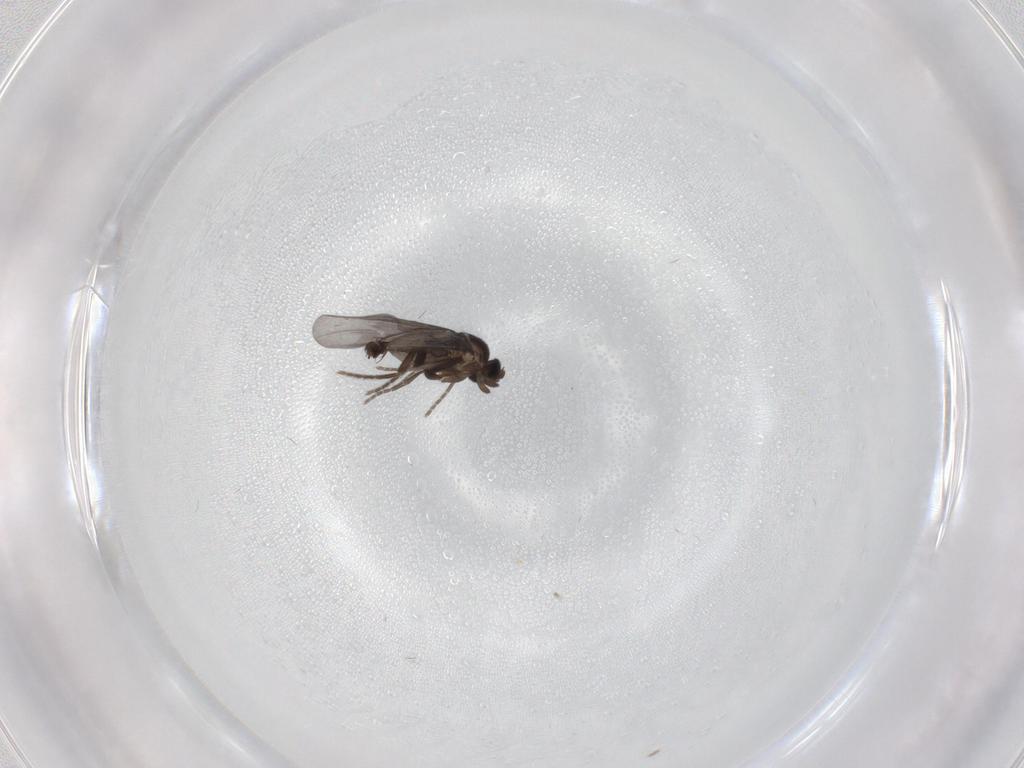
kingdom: Animalia
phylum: Arthropoda
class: Insecta
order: Diptera
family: Phoridae
